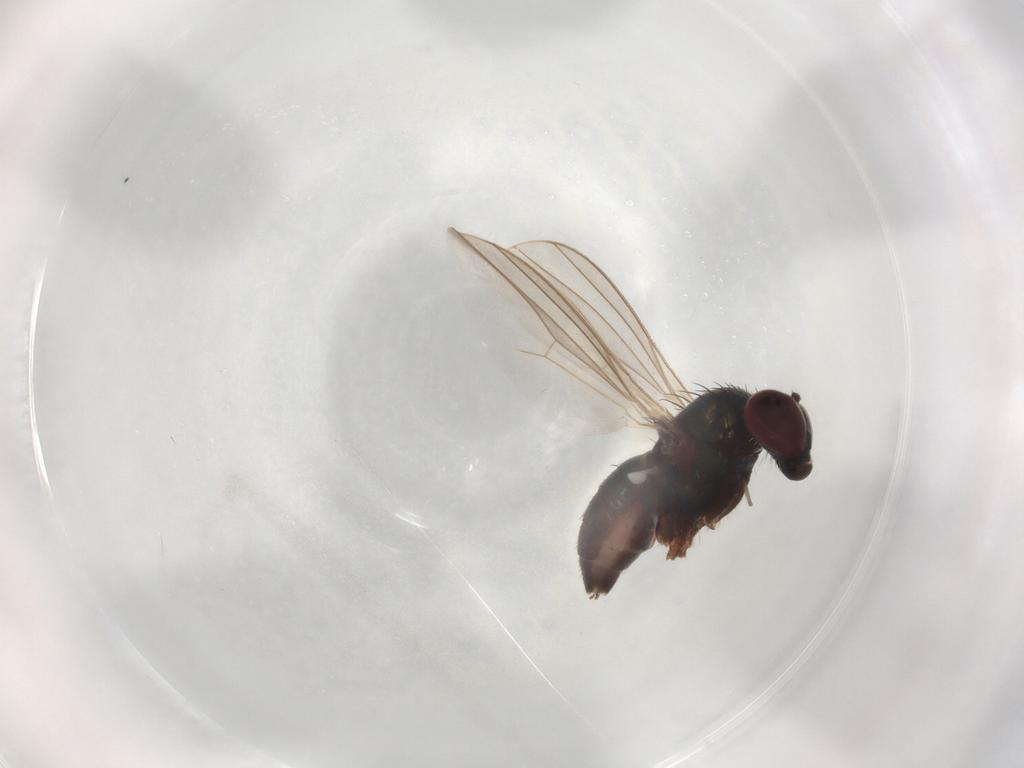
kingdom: Animalia
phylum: Arthropoda
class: Insecta
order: Diptera
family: Dolichopodidae
